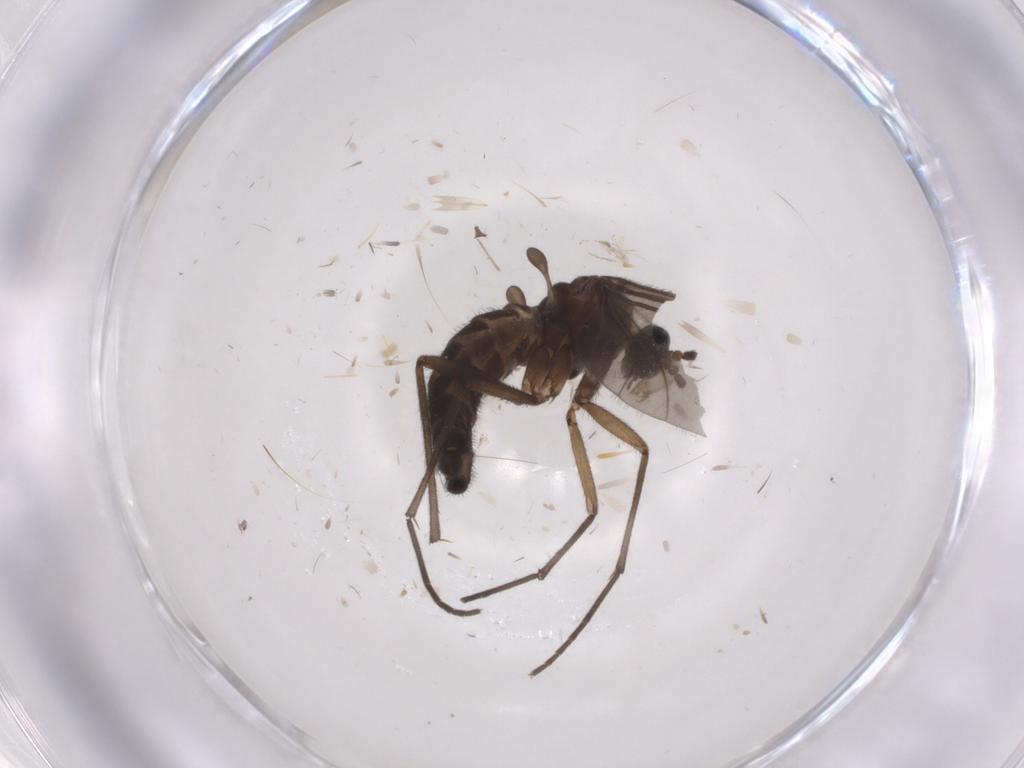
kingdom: Animalia
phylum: Arthropoda
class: Insecta
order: Diptera
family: Sciaridae
